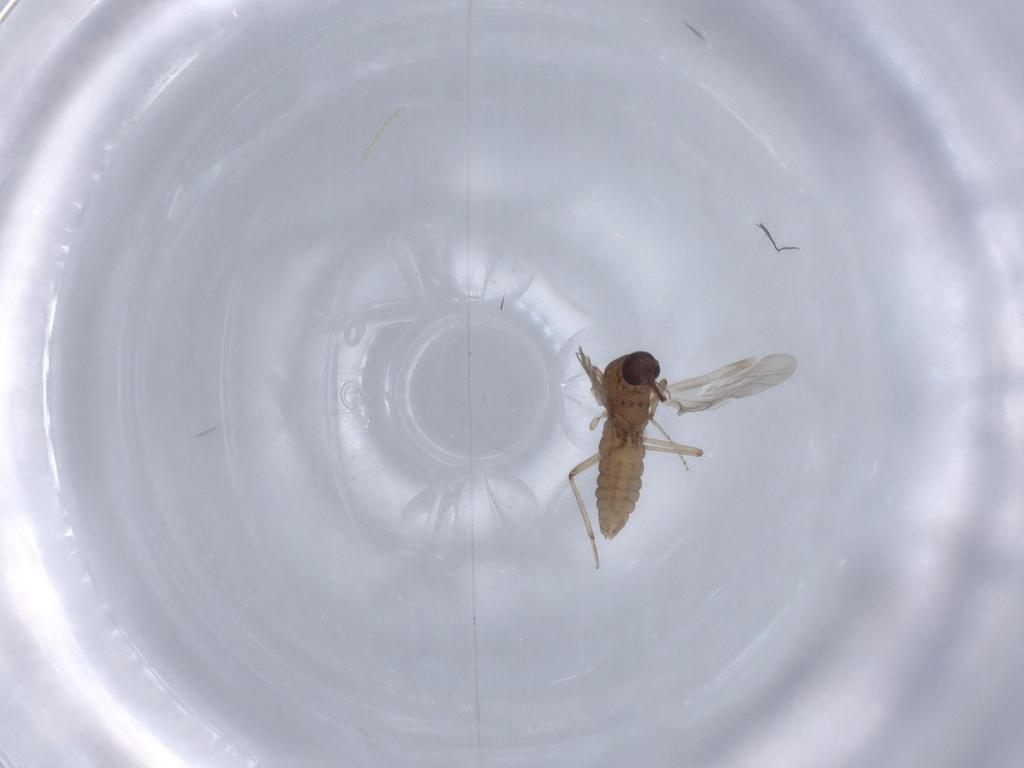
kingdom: Animalia
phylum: Arthropoda
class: Insecta
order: Diptera
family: Ceratopogonidae
